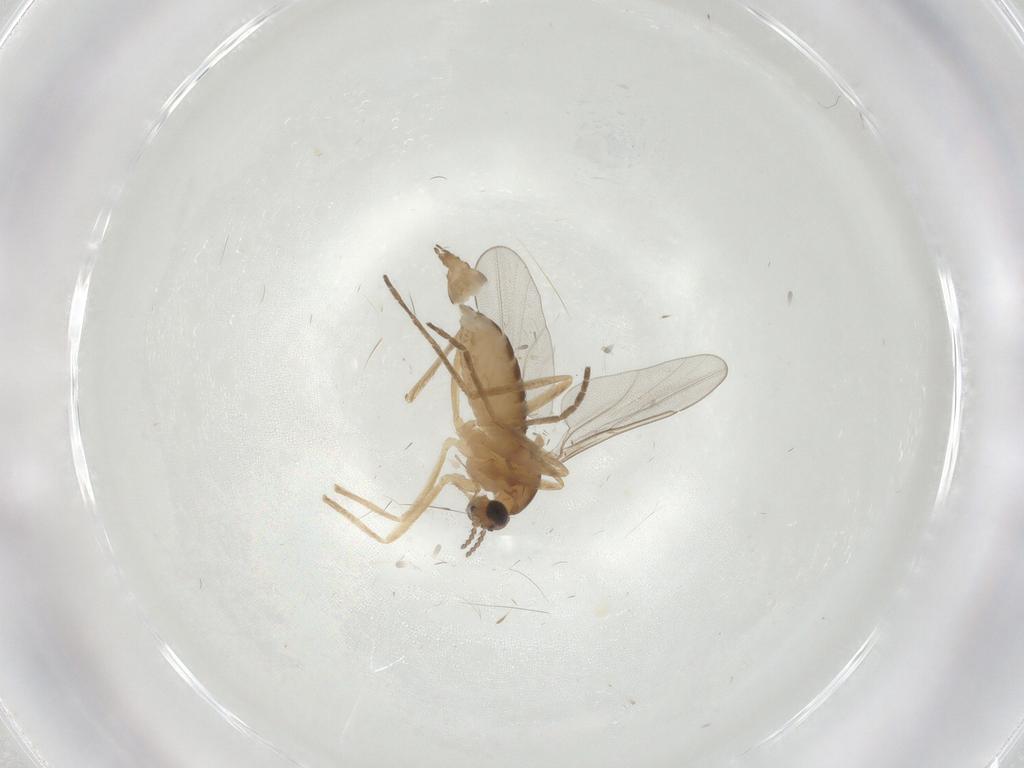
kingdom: Animalia
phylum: Arthropoda
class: Insecta
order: Diptera
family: Cecidomyiidae
